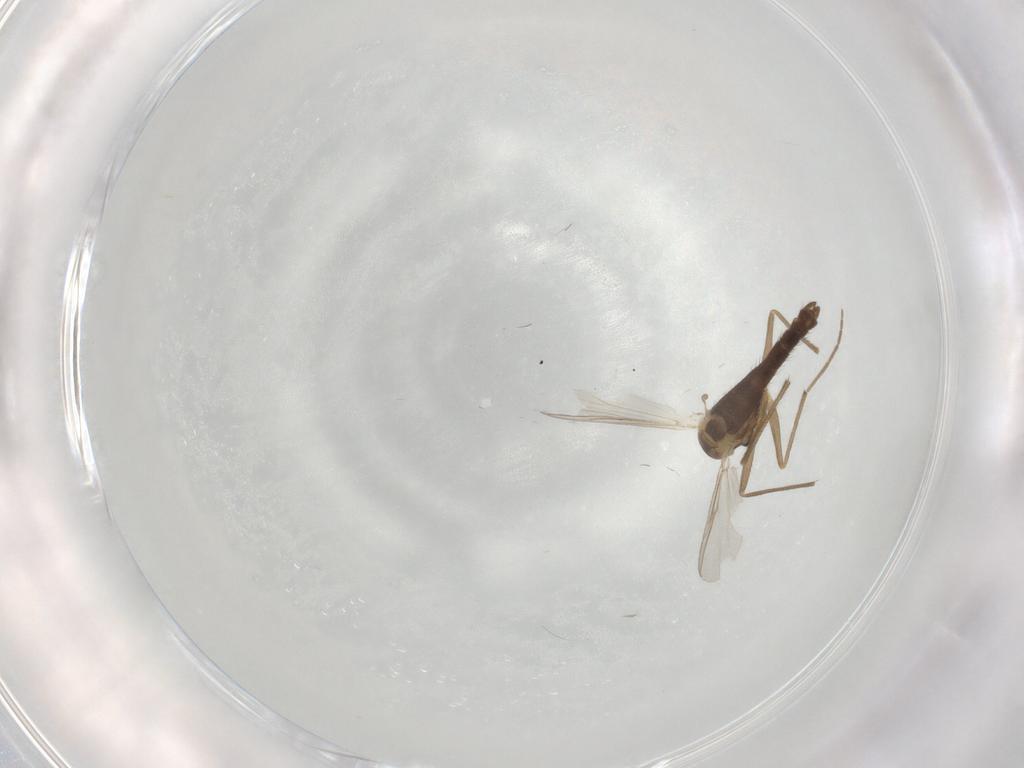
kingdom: Animalia
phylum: Arthropoda
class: Insecta
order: Diptera
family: Chironomidae
